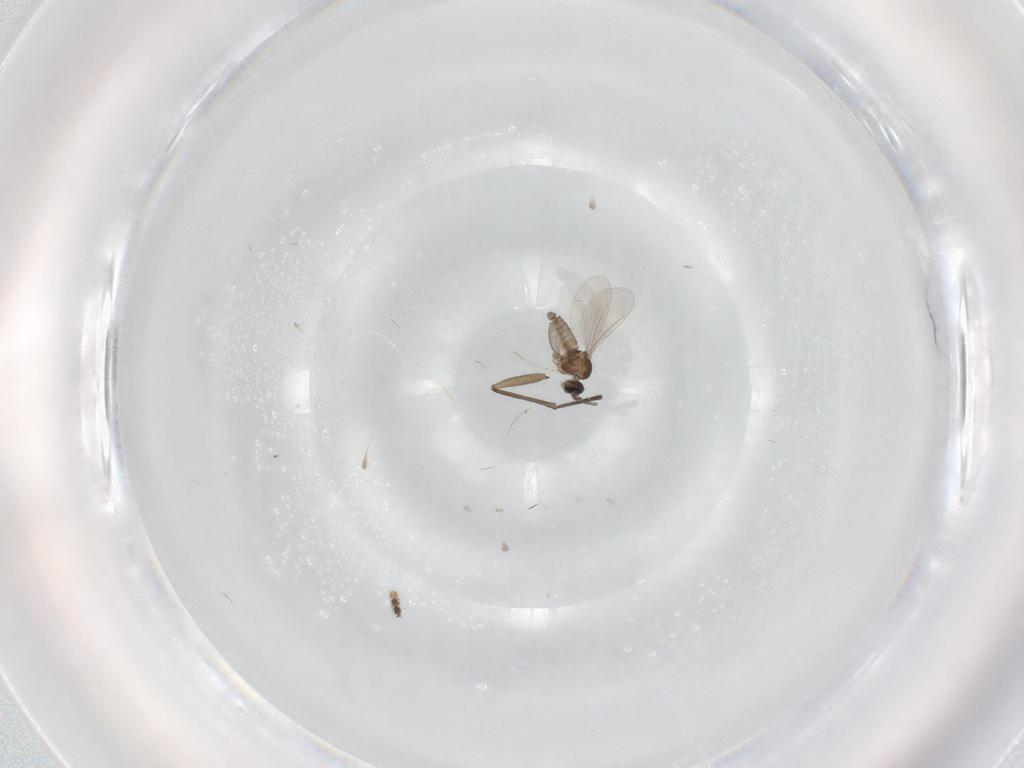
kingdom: Animalia
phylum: Arthropoda
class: Insecta
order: Diptera
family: Sciaridae
